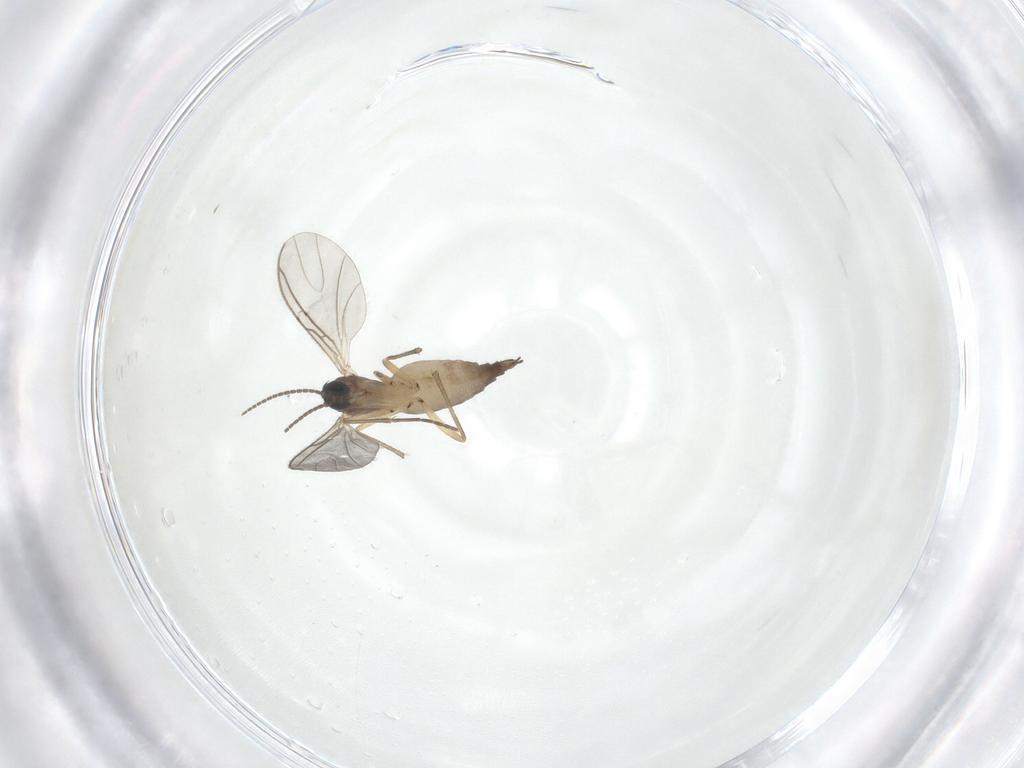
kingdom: Animalia
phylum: Arthropoda
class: Insecta
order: Diptera
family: Sciaridae
